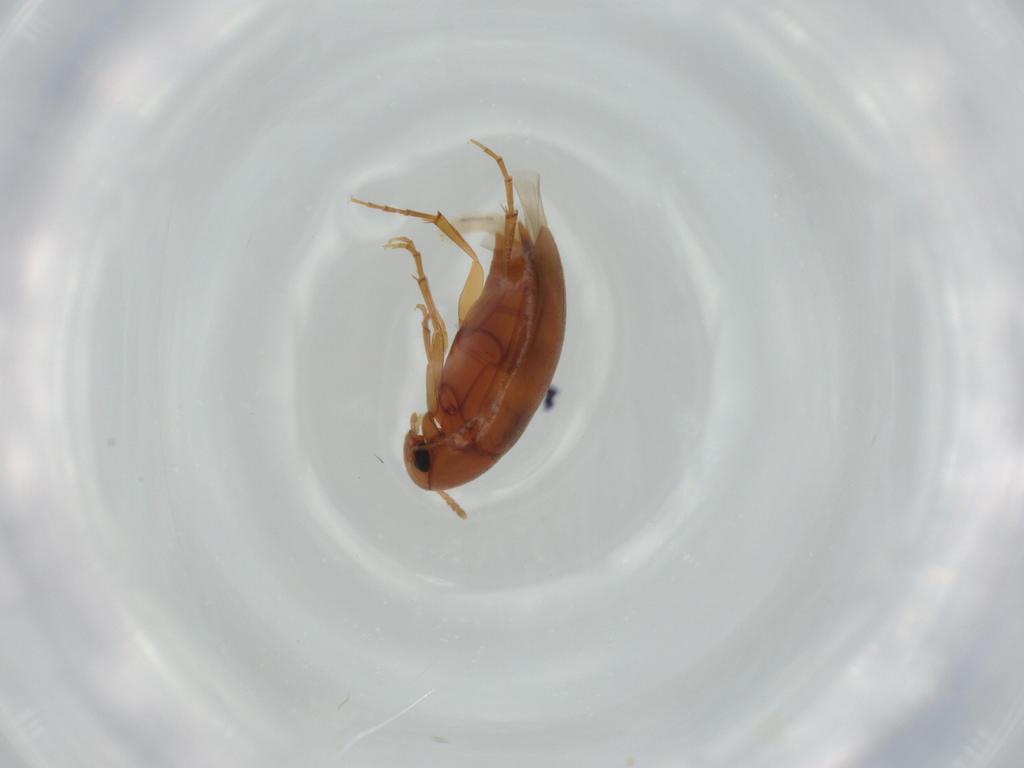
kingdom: Animalia
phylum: Arthropoda
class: Insecta
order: Coleoptera
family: Scraptiidae
